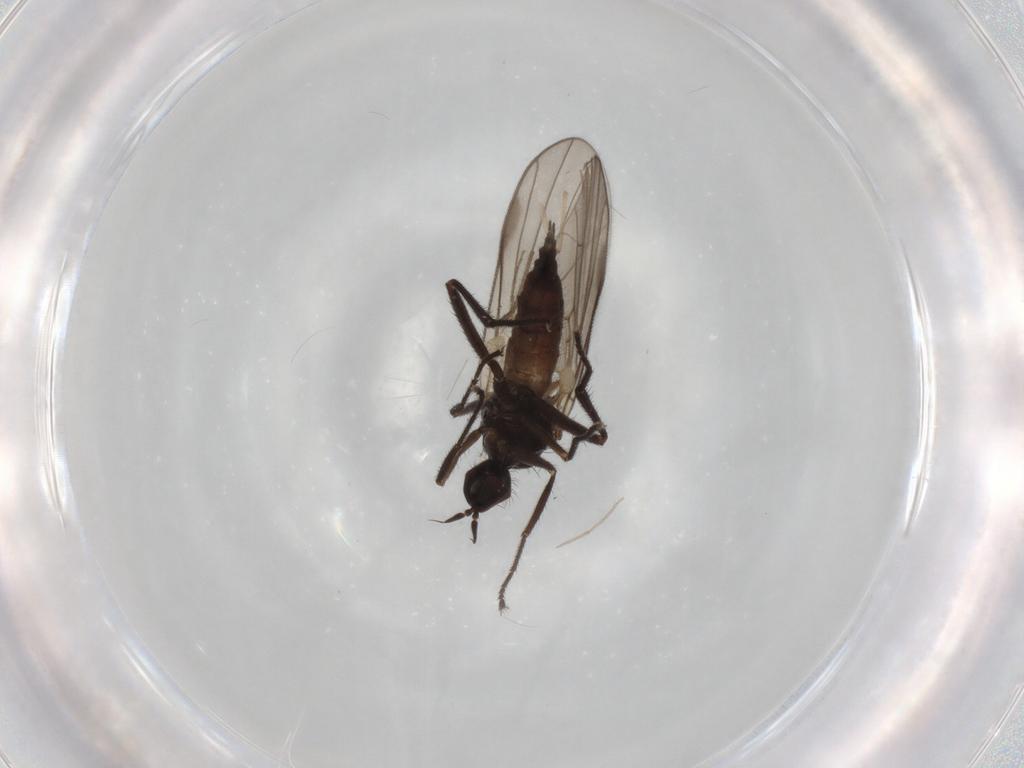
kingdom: Animalia
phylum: Arthropoda
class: Insecta
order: Diptera
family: Hybotidae
